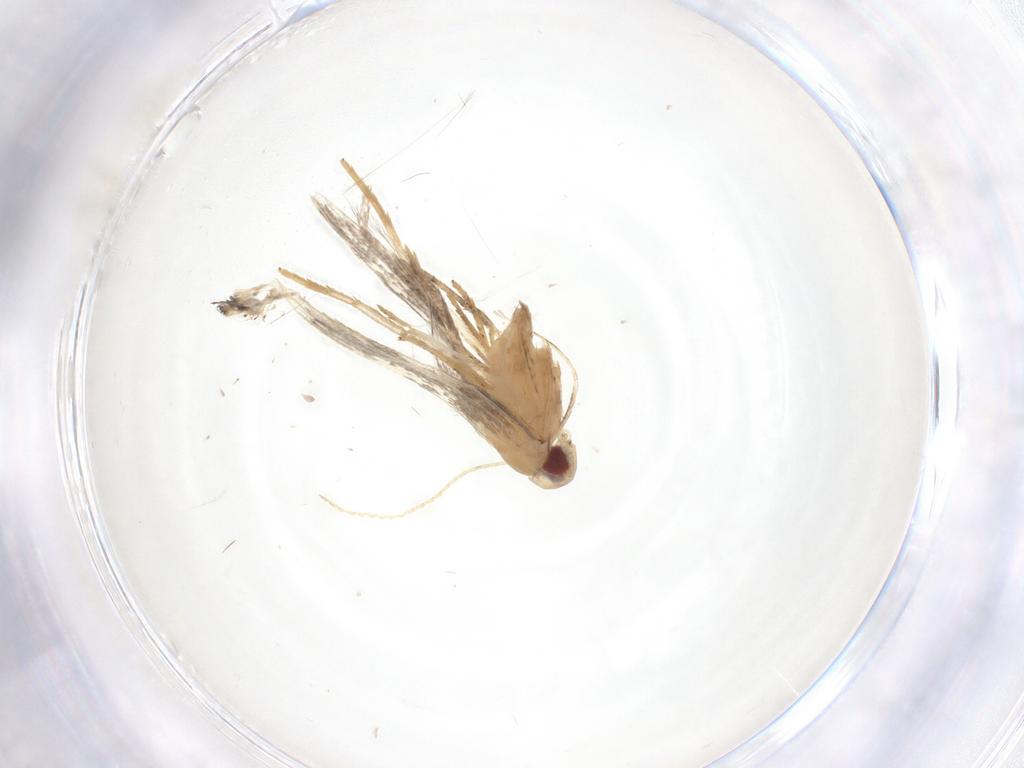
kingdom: Animalia
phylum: Arthropoda
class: Insecta
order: Lepidoptera
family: Cosmopterigidae
